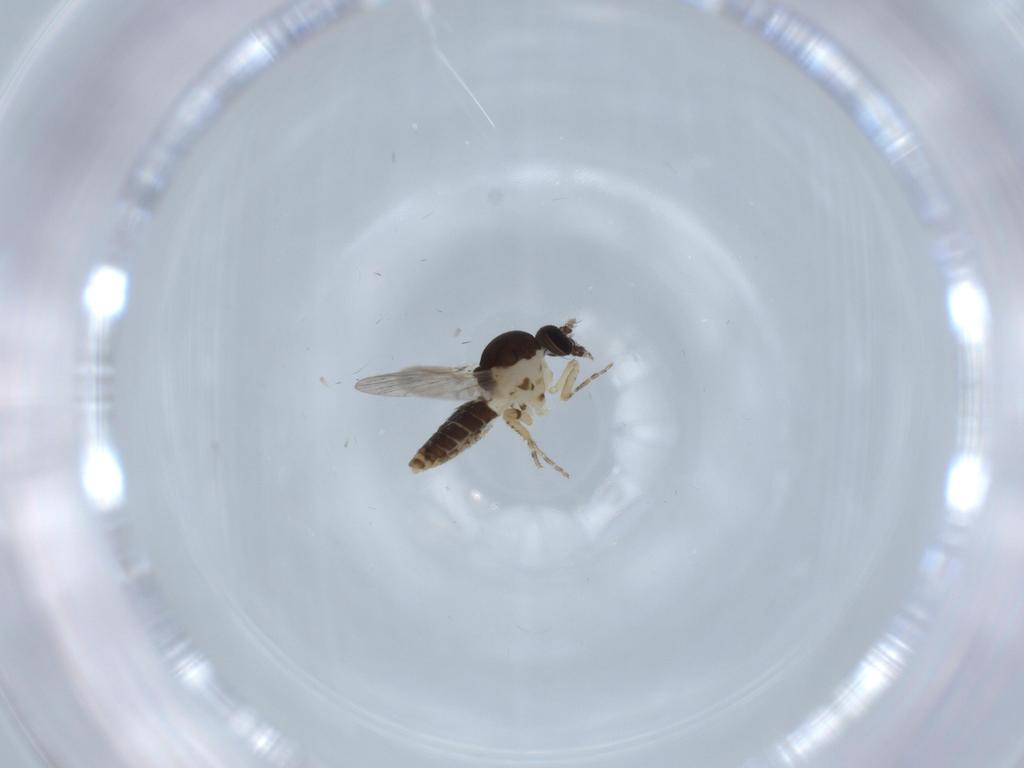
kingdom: Animalia
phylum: Arthropoda
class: Insecta
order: Diptera
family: Ceratopogonidae
